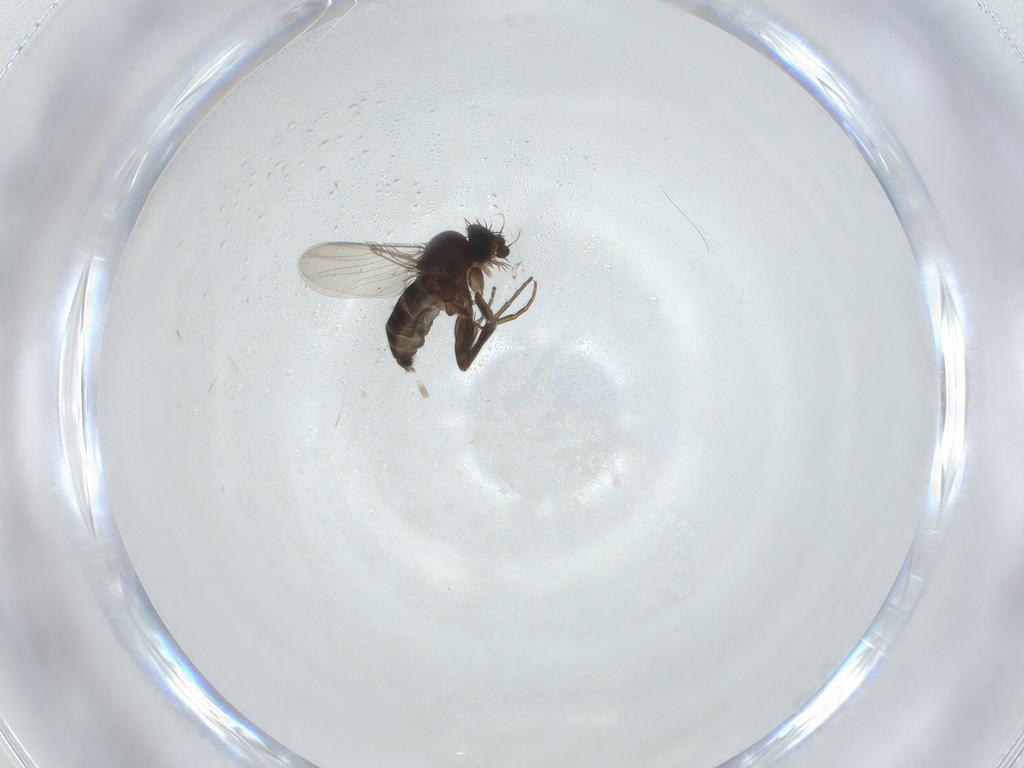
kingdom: Animalia
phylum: Arthropoda
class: Insecta
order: Diptera
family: Phoridae
